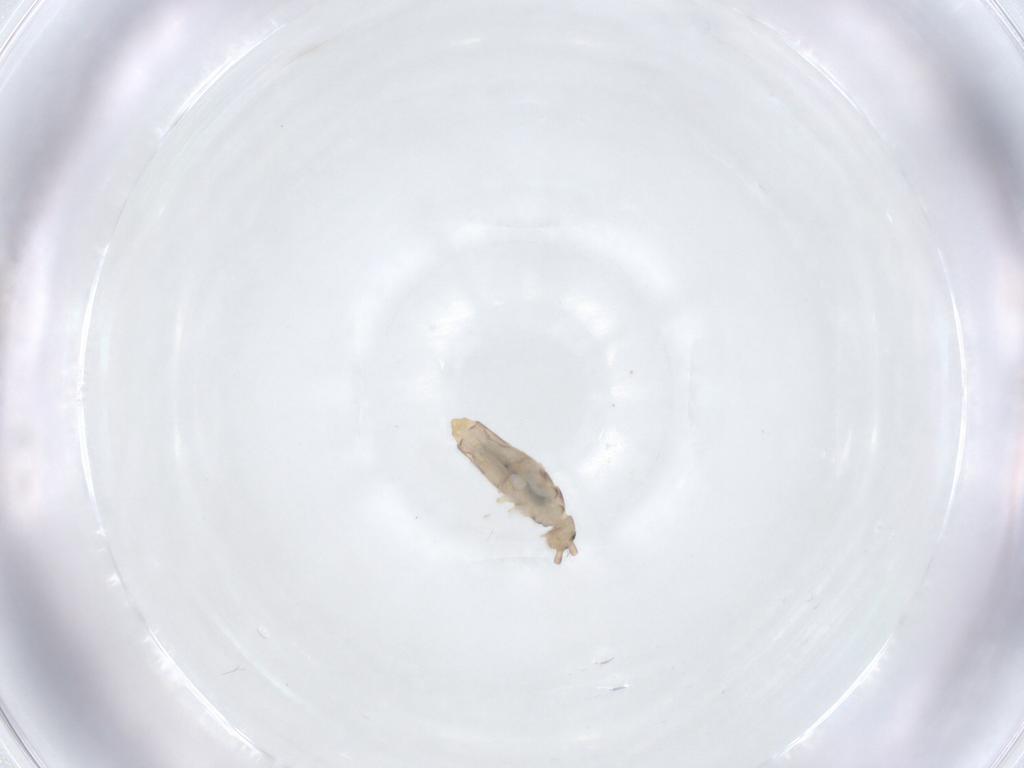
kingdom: Animalia
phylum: Arthropoda
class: Collembola
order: Entomobryomorpha
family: Entomobryidae
